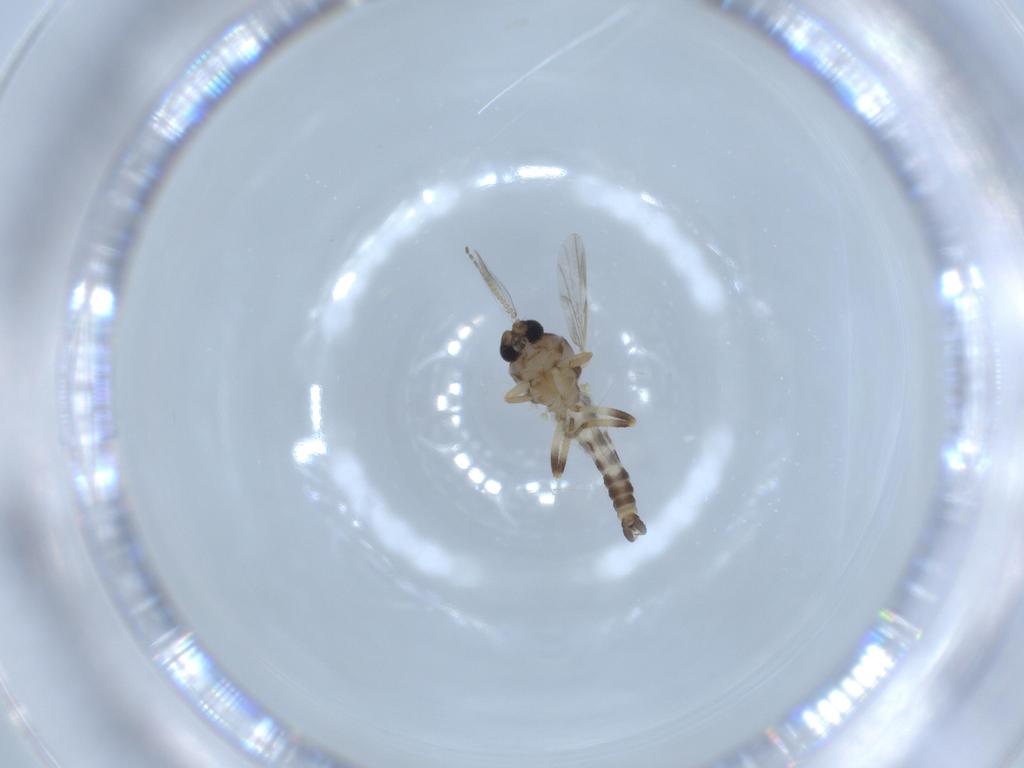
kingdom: Animalia
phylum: Arthropoda
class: Insecta
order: Diptera
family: Ceratopogonidae
